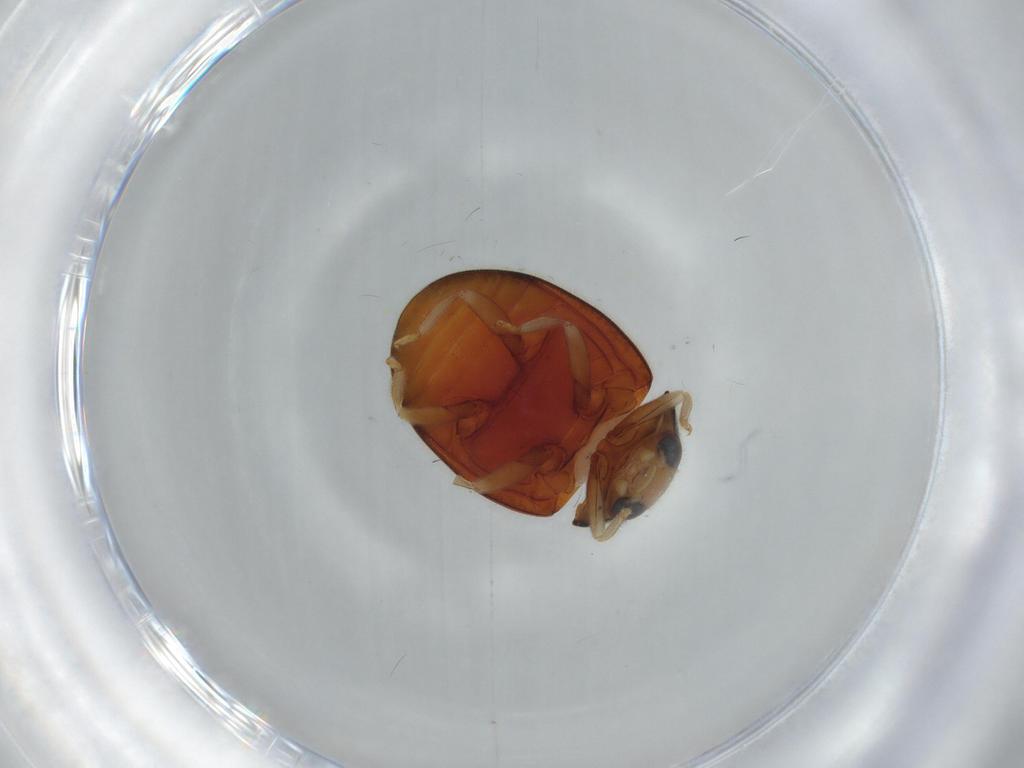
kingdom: Animalia
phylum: Arthropoda
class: Insecta
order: Coleoptera
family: Coccinellidae
